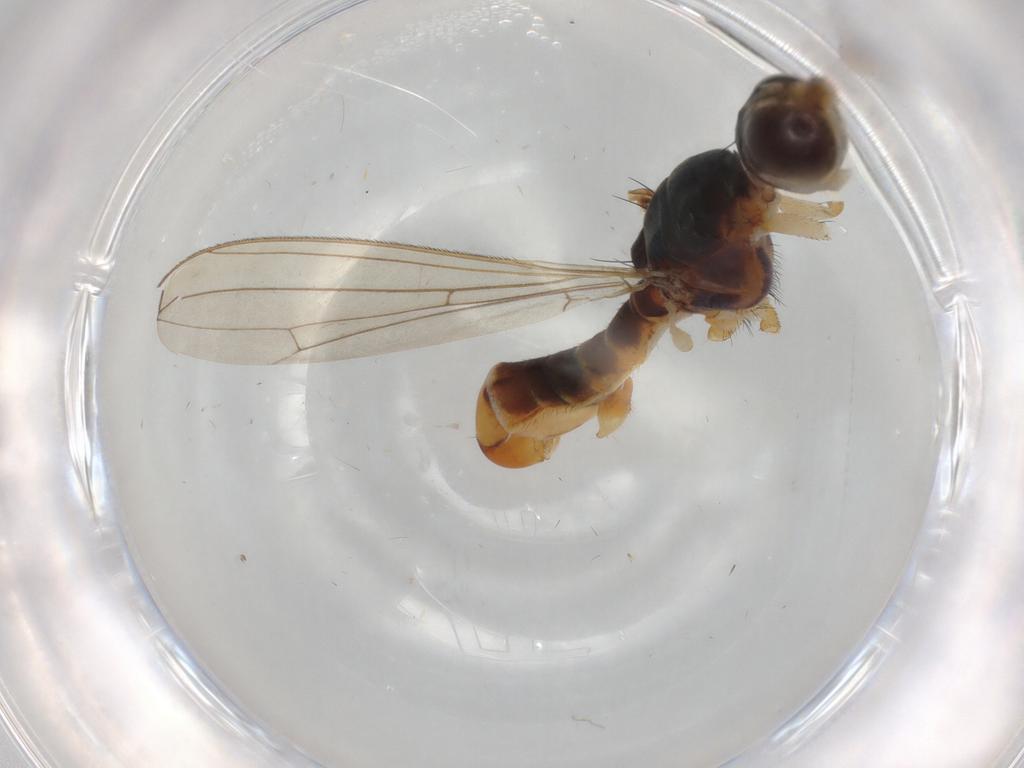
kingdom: Animalia
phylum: Arthropoda
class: Insecta
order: Diptera
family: Micropezidae
